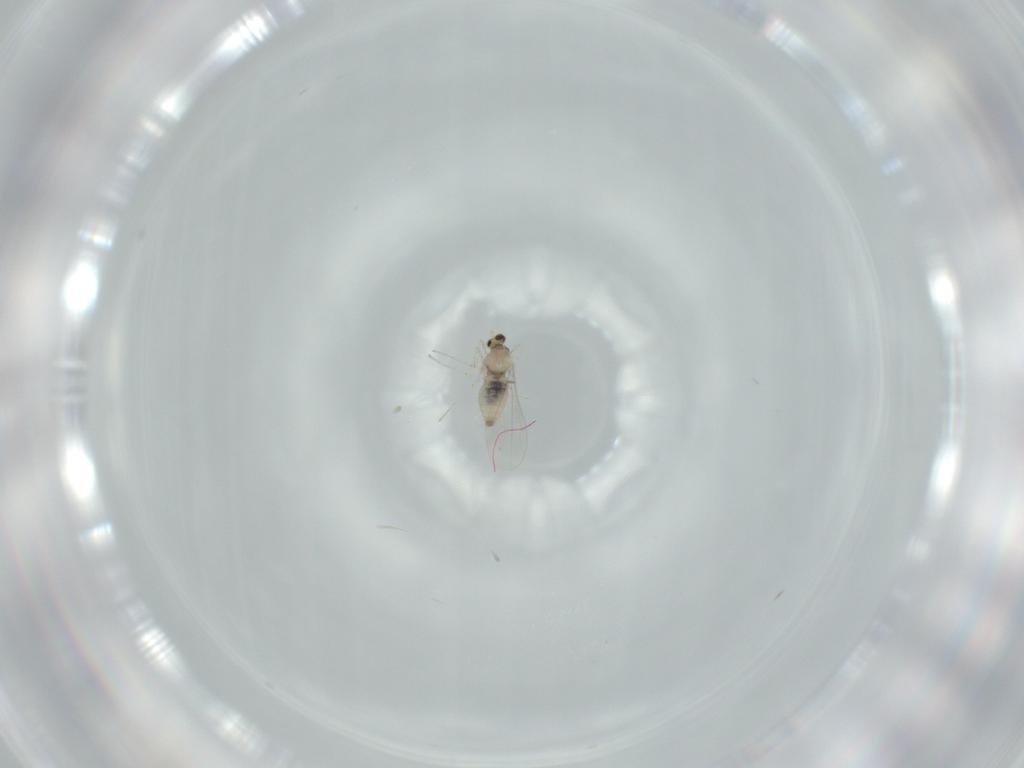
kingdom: Animalia
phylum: Arthropoda
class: Insecta
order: Diptera
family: Cecidomyiidae
